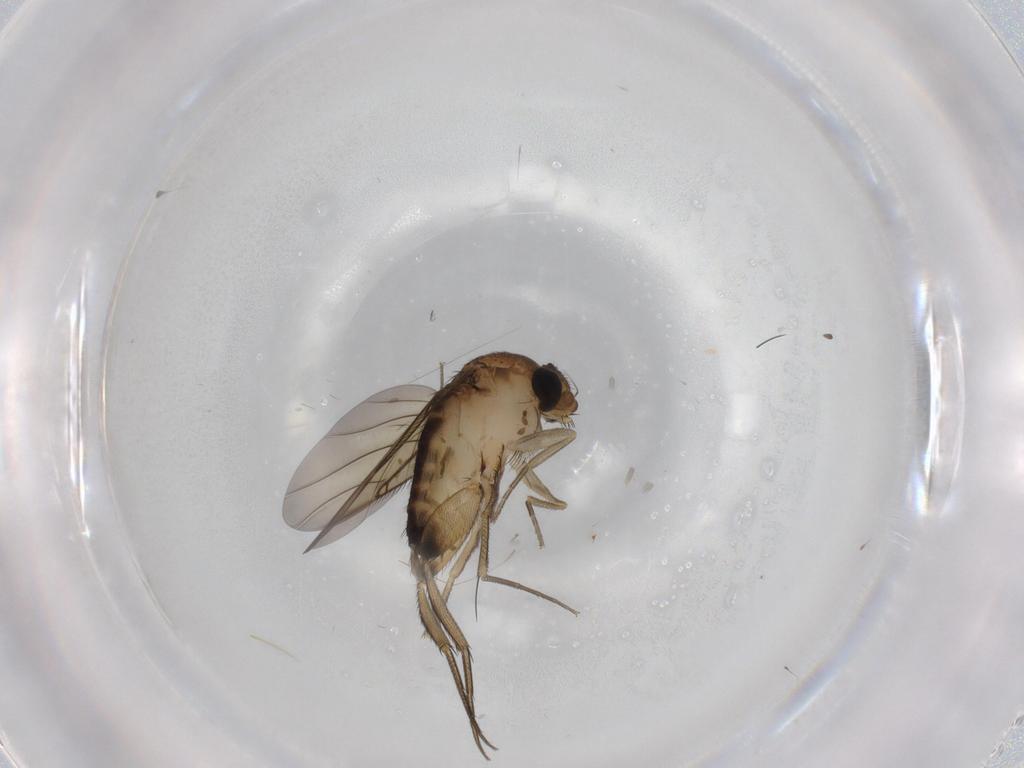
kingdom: Animalia
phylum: Arthropoda
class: Insecta
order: Diptera
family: Phoridae
